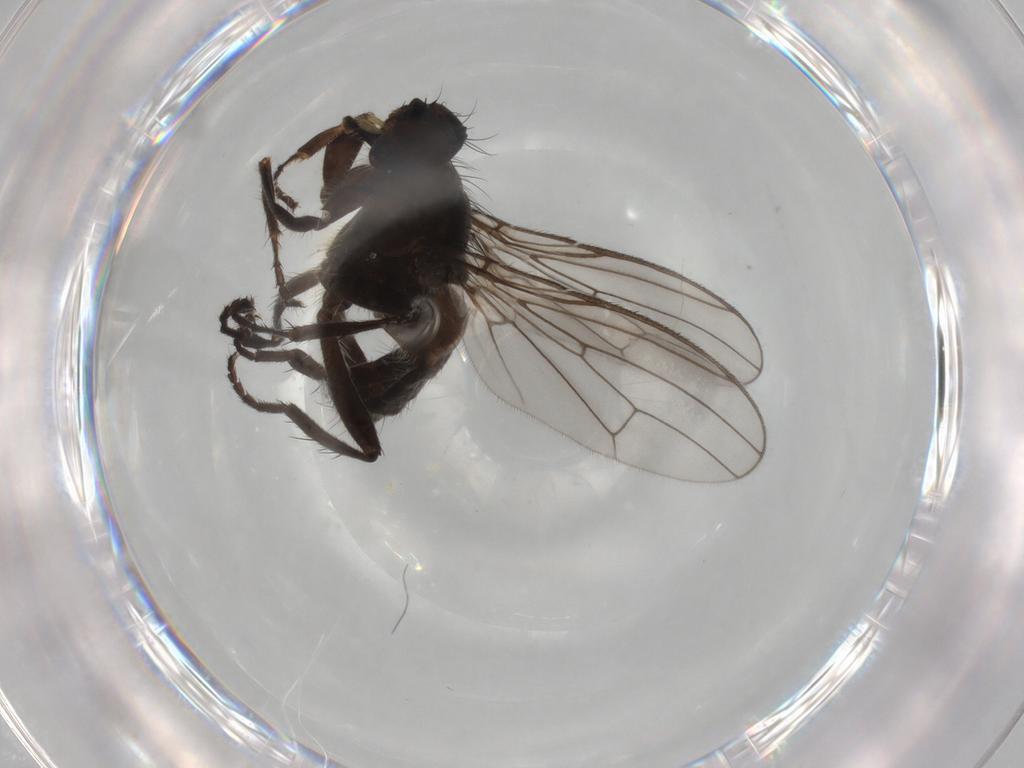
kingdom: Animalia
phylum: Arthropoda
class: Insecta
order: Diptera
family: Scathophagidae
